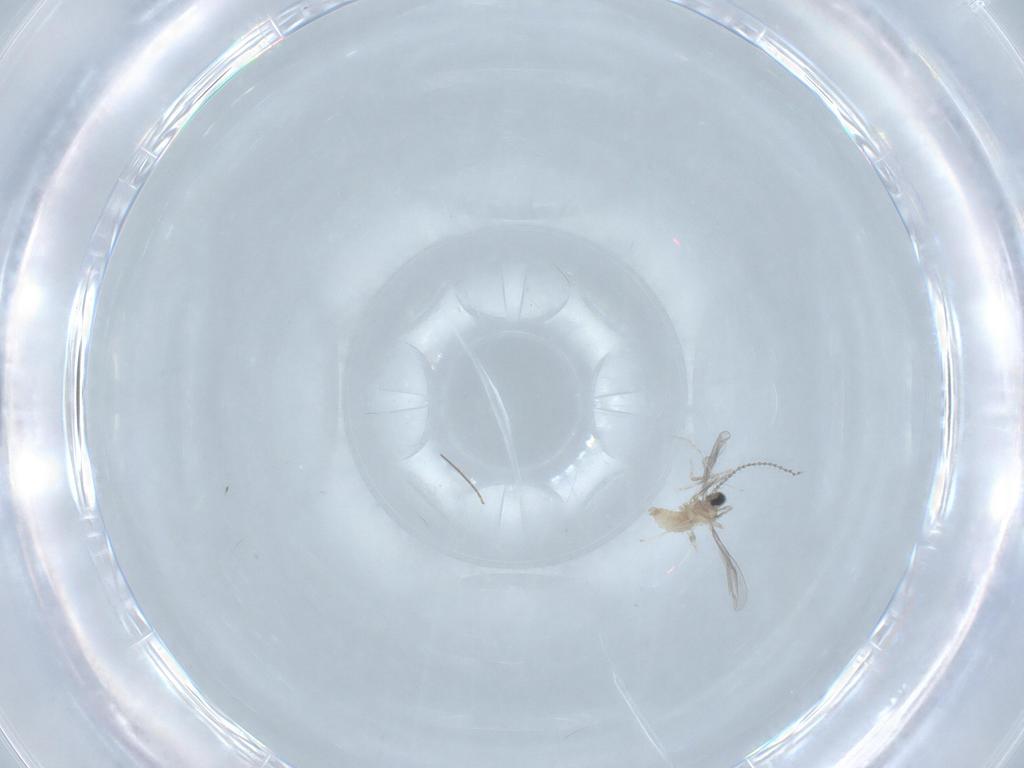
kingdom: Animalia
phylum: Arthropoda
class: Insecta
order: Diptera
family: Chironomidae
